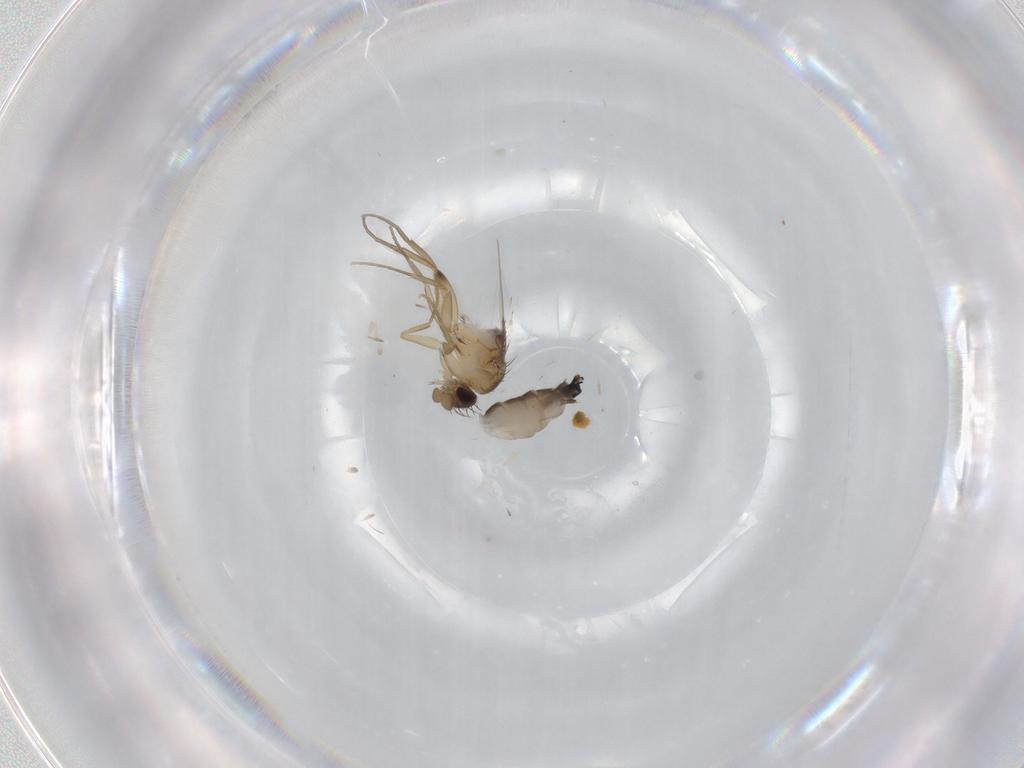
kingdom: Animalia
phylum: Arthropoda
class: Insecta
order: Diptera
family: Phoridae
